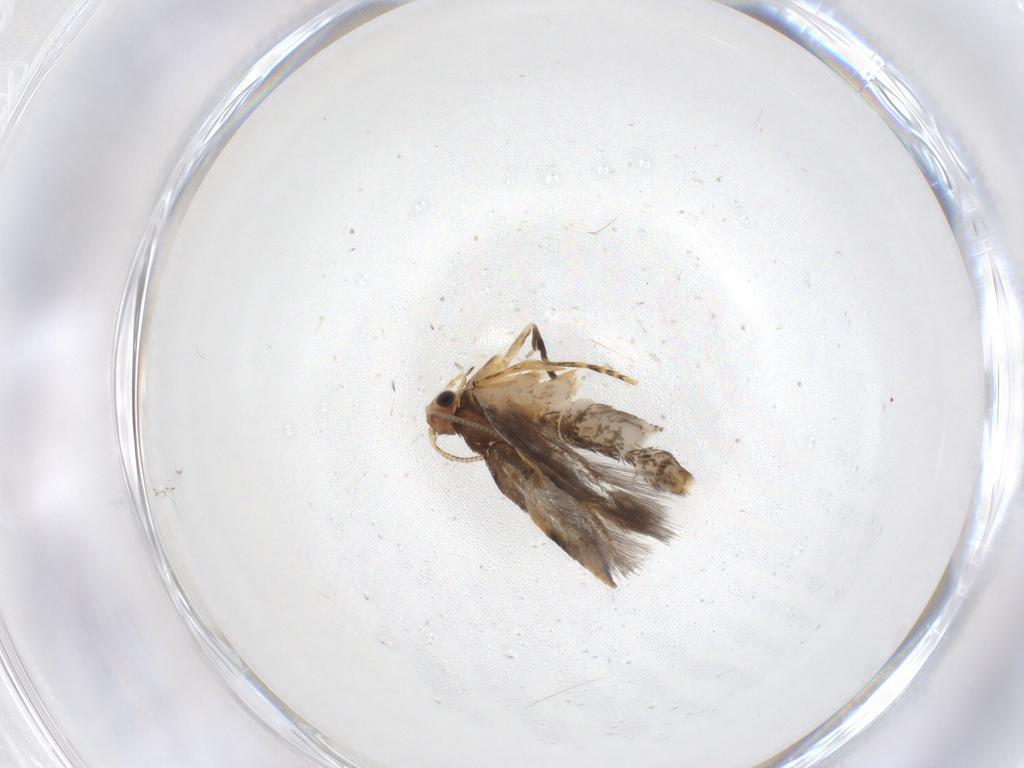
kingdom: Animalia
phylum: Arthropoda
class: Insecta
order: Lepidoptera
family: Tineidae
